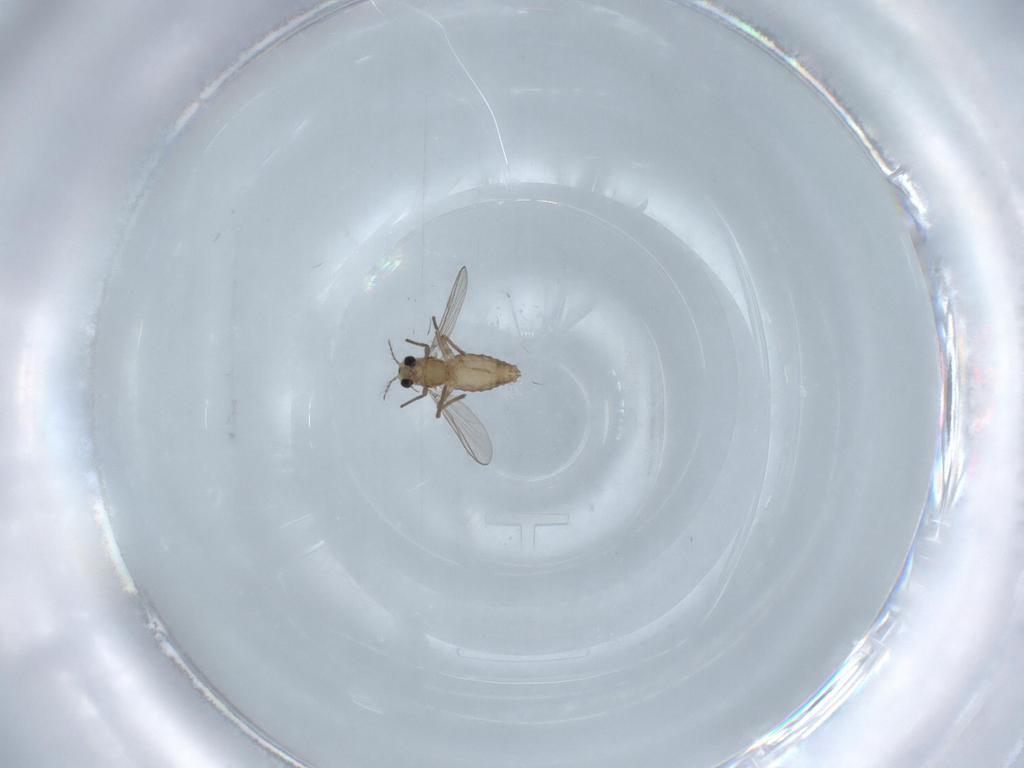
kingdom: Animalia
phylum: Arthropoda
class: Insecta
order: Diptera
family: Chironomidae
